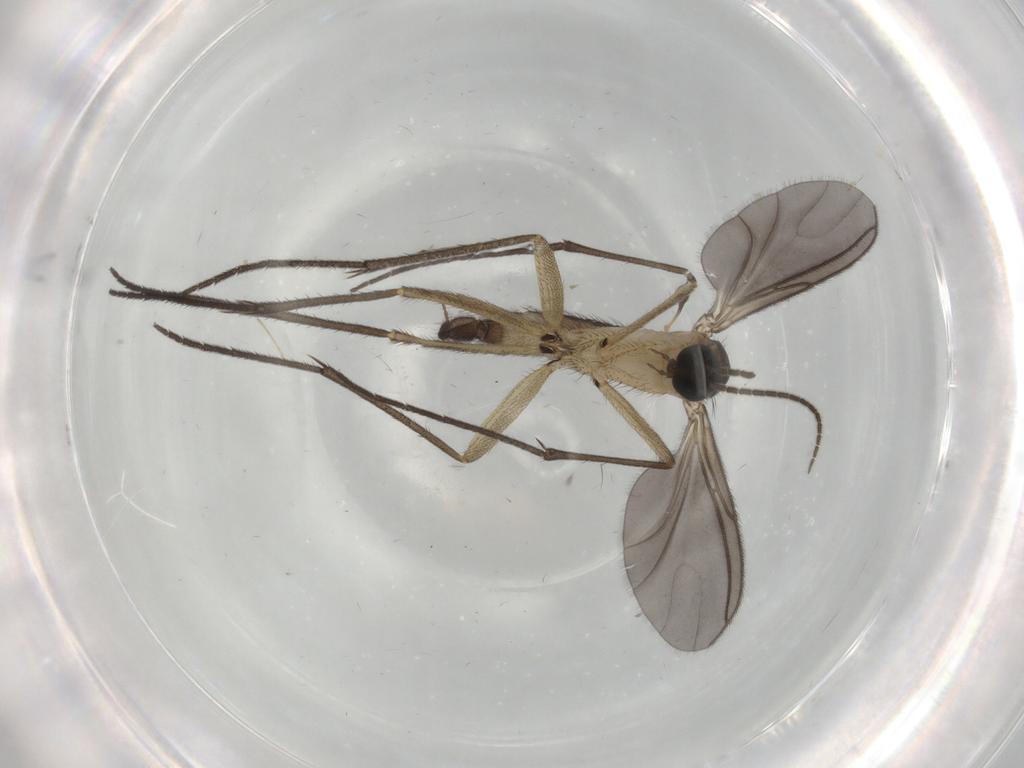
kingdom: Animalia
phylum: Arthropoda
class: Insecta
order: Diptera
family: Sciaridae
